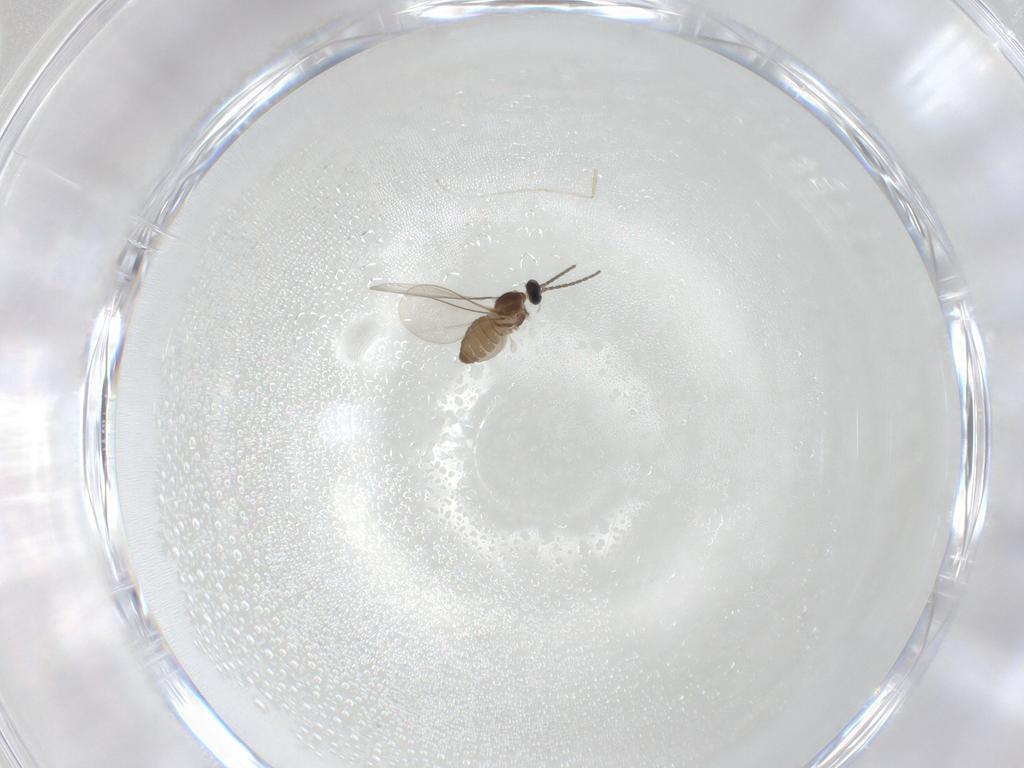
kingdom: Animalia
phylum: Arthropoda
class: Insecta
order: Diptera
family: Cecidomyiidae
